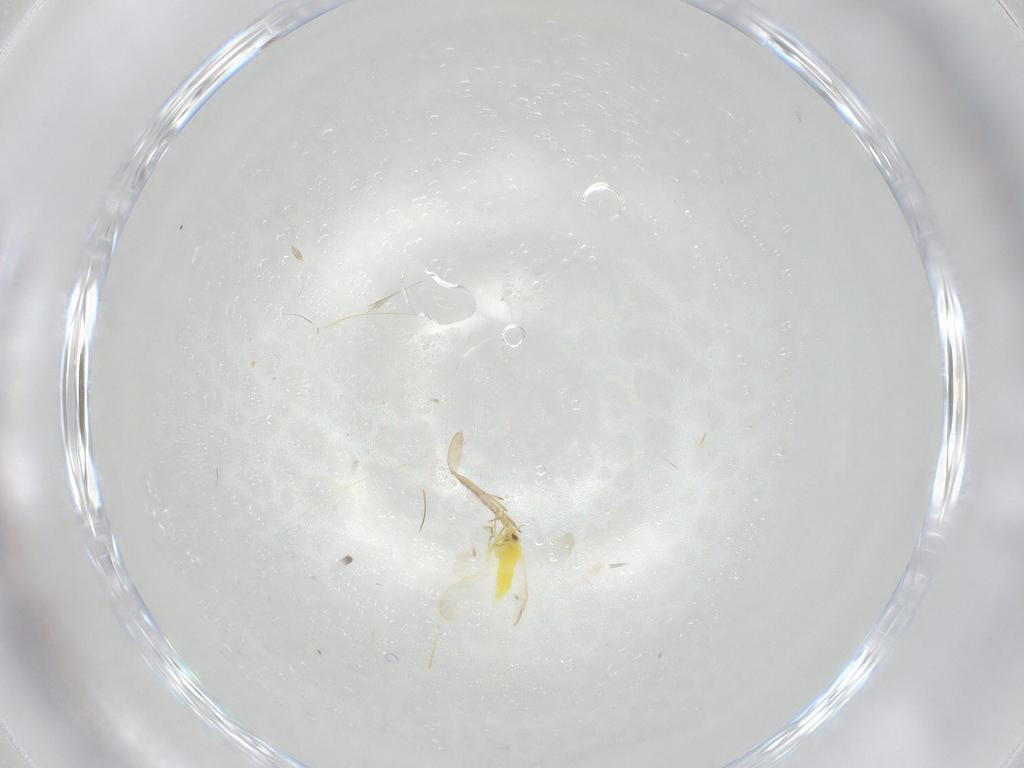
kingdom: Animalia
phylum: Arthropoda
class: Insecta
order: Hemiptera
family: Aleyrodidae
